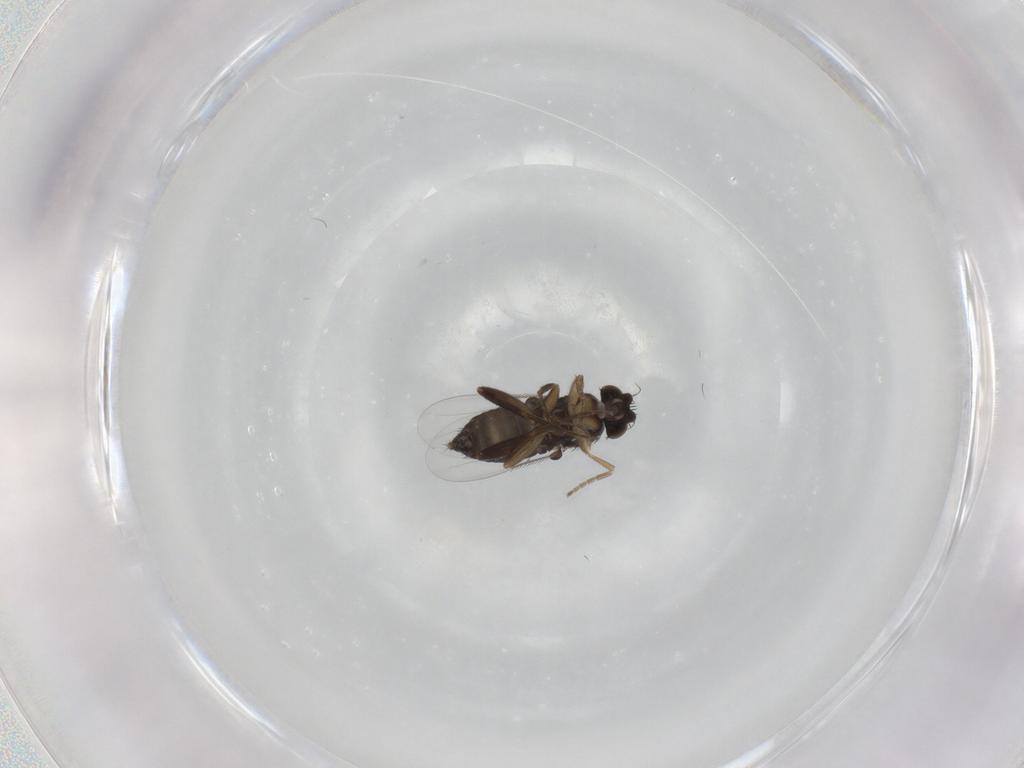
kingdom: Animalia
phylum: Arthropoda
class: Insecta
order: Diptera
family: Phoridae
